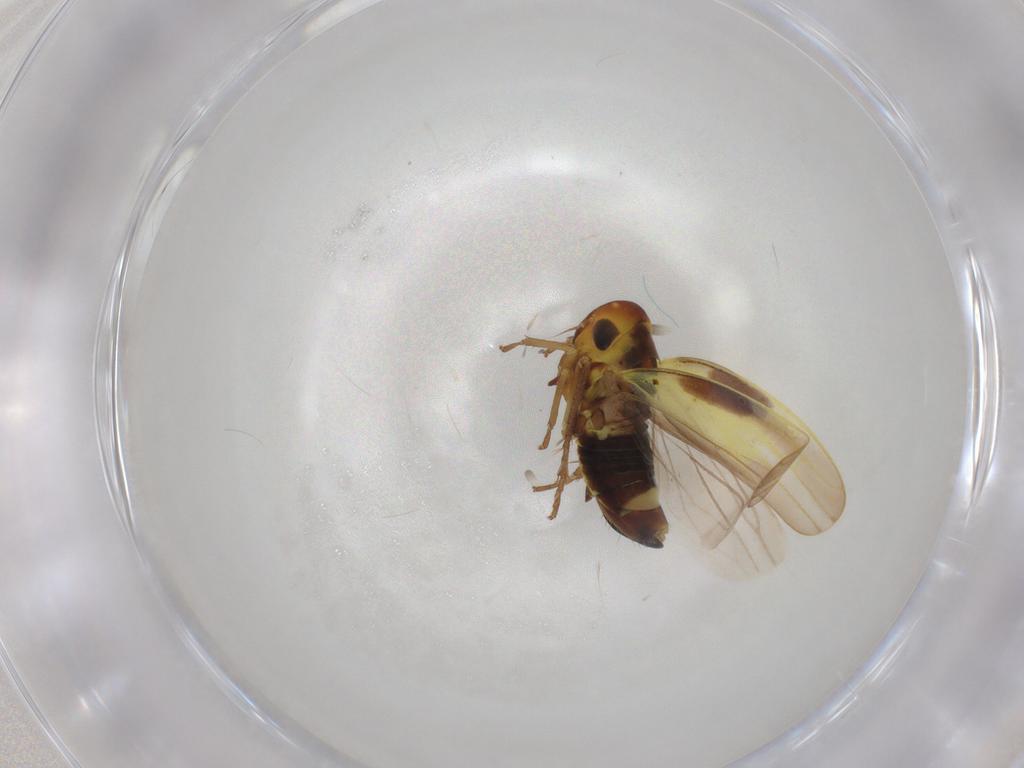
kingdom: Animalia
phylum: Arthropoda
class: Insecta
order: Hemiptera
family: Cicadellidae
